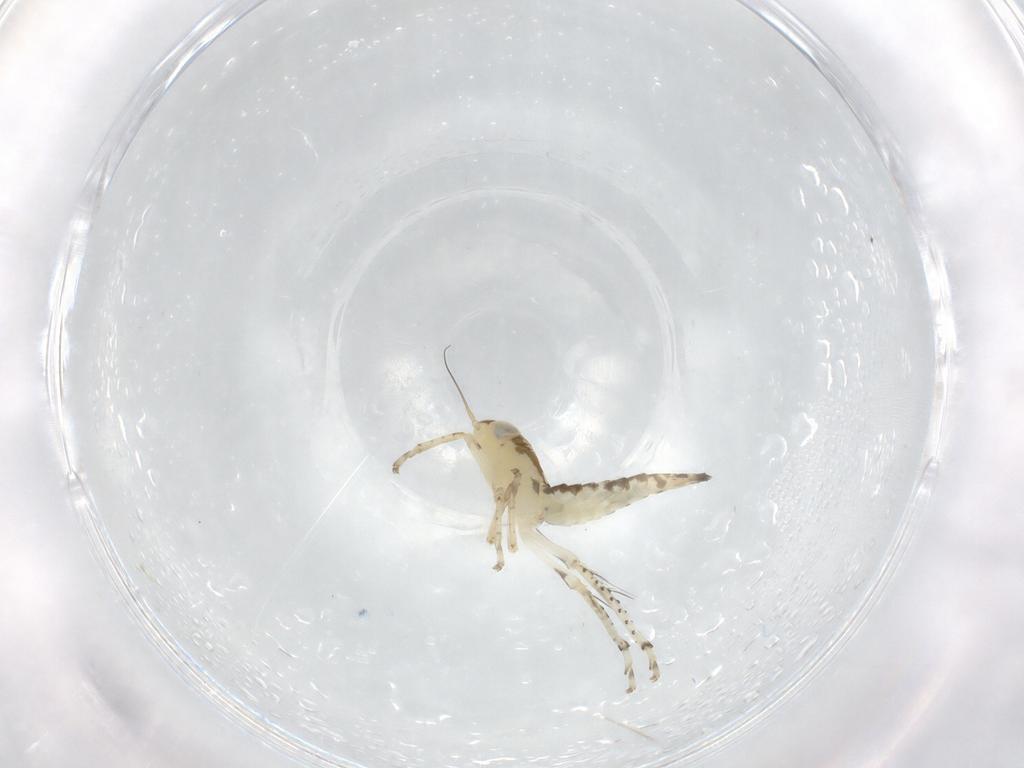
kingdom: Animalia
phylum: Arthropoda
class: Insecta
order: Hemiptera
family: Cicadellidae
